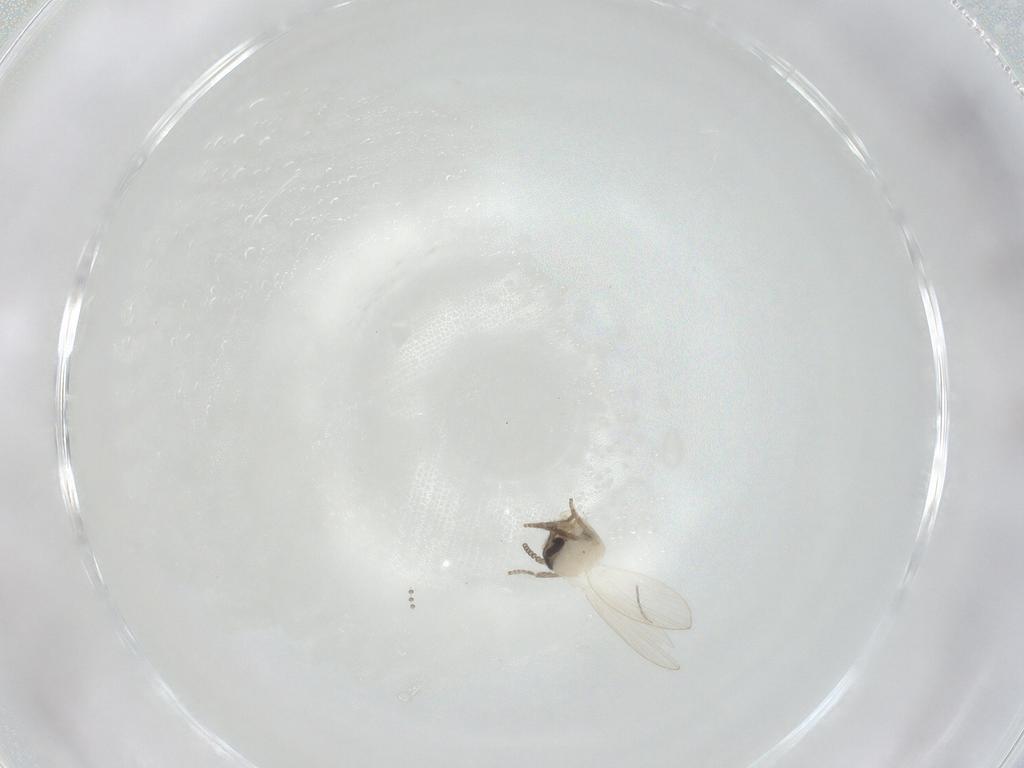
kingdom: Animalia
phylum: Arthropoda
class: Insecta
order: Diptera
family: Psychodidae
